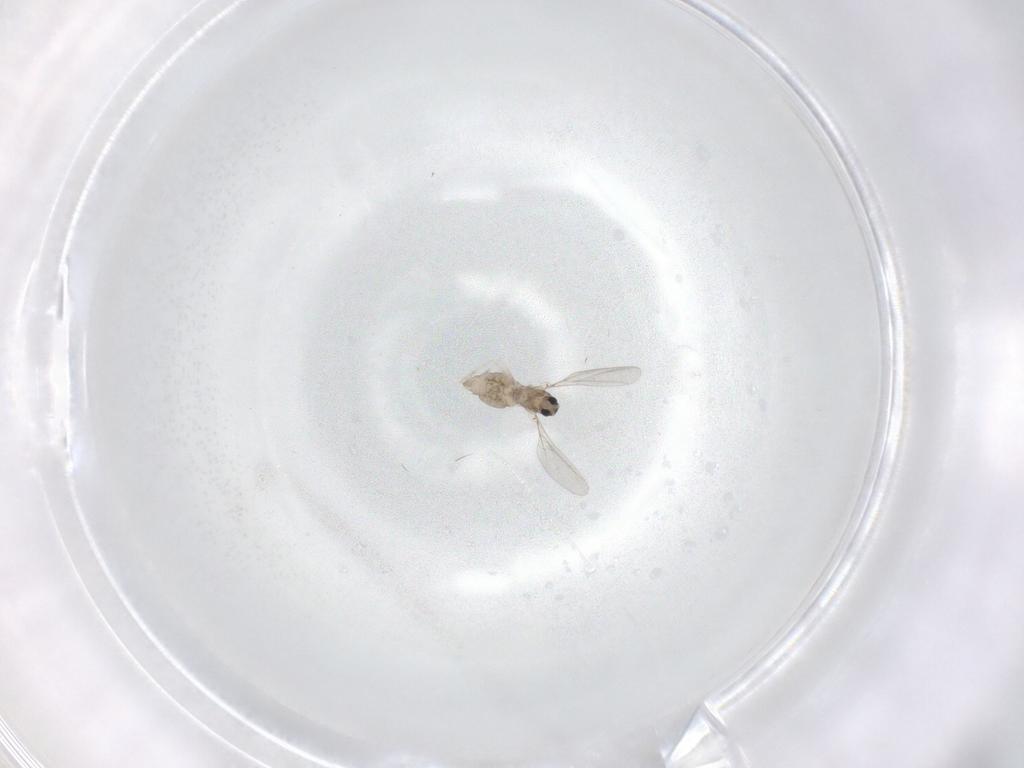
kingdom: Animalia
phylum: Arthropoda
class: Insecta
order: Diptera
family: Cecidomyiidae
